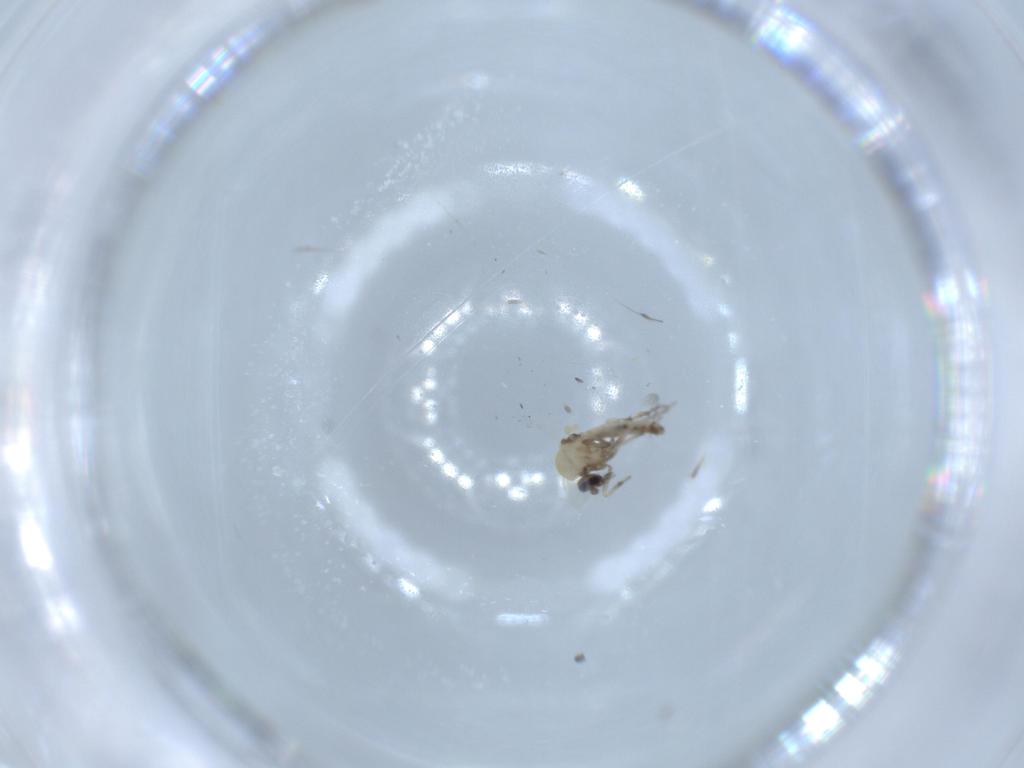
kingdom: Animalia
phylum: Arthropoda
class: Insecta
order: Diptera
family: Ceratopogonidae
